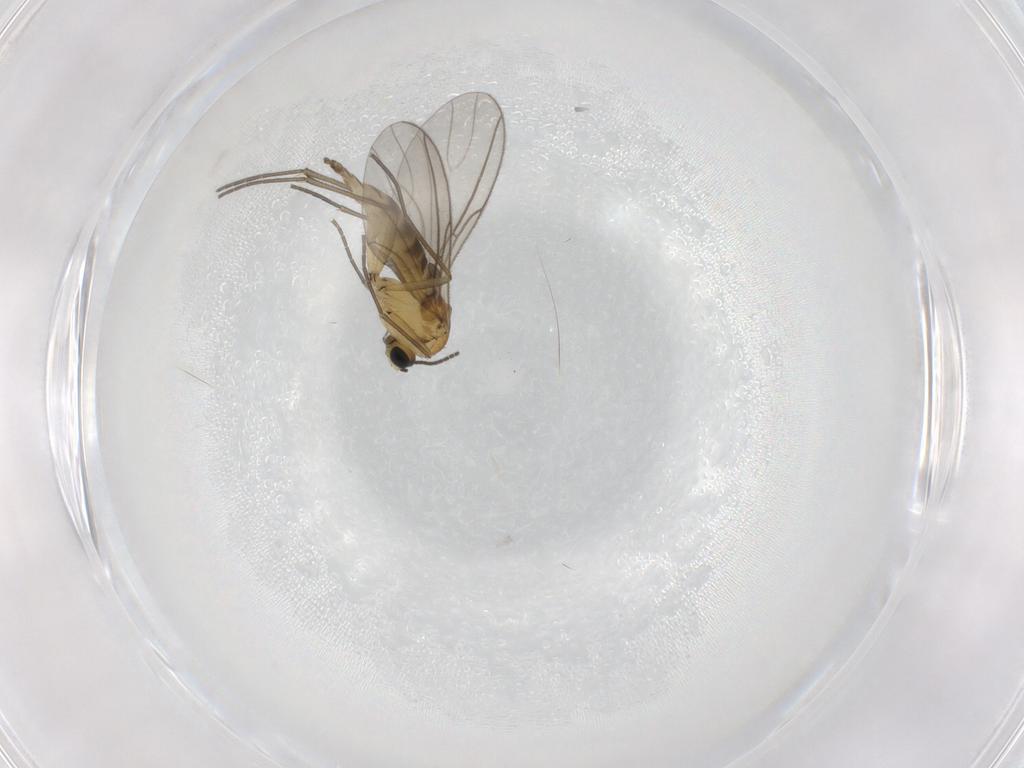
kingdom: Animalia
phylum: Arthropoda
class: Insecta
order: Diptera
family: Sciaridae
